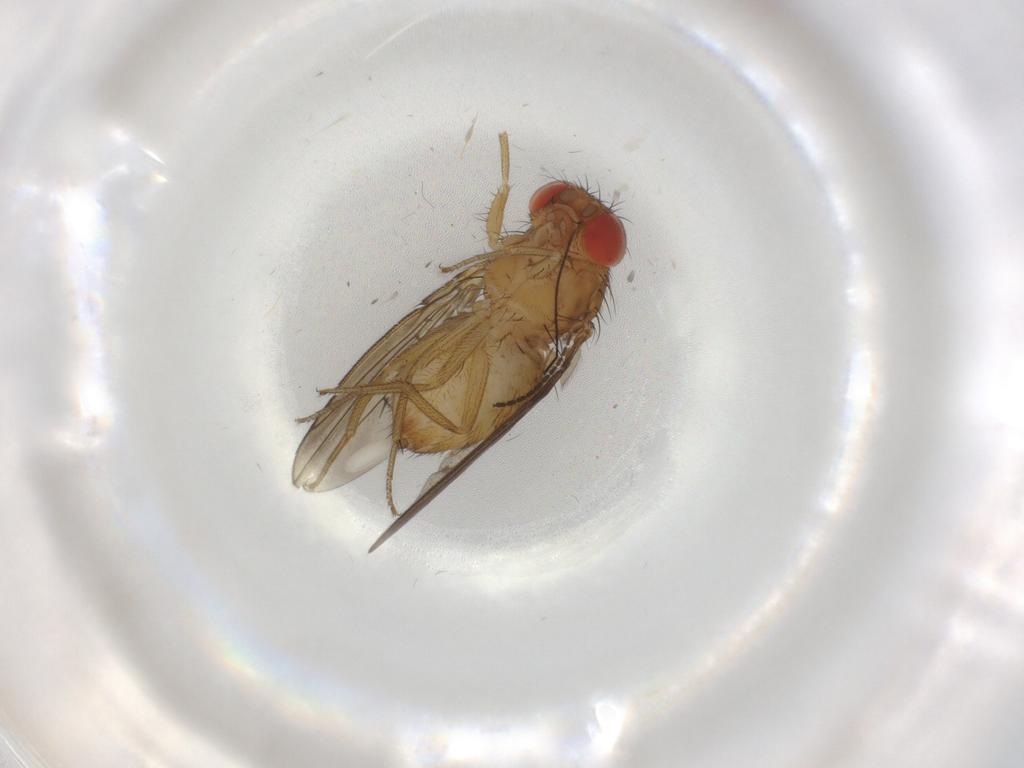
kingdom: Animalia
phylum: Arthropoda
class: Insecta
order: Diptera
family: Drosophilidae
